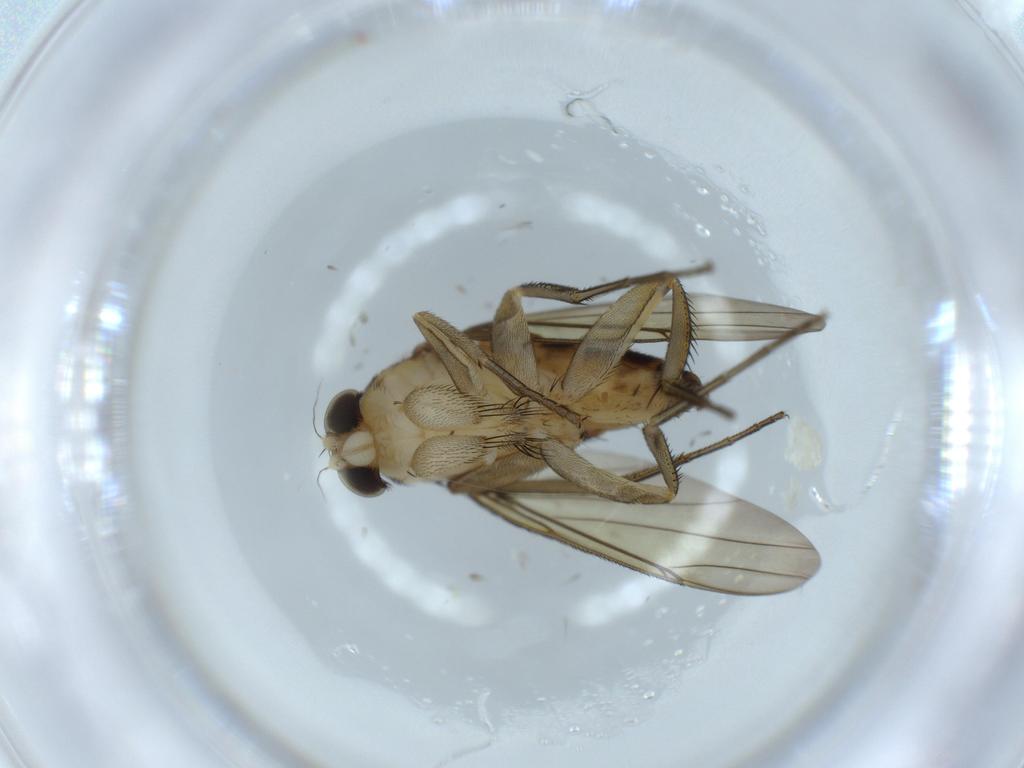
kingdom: Animalia
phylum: Arthropoda
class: Insecta
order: Diptera
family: Phoridae
